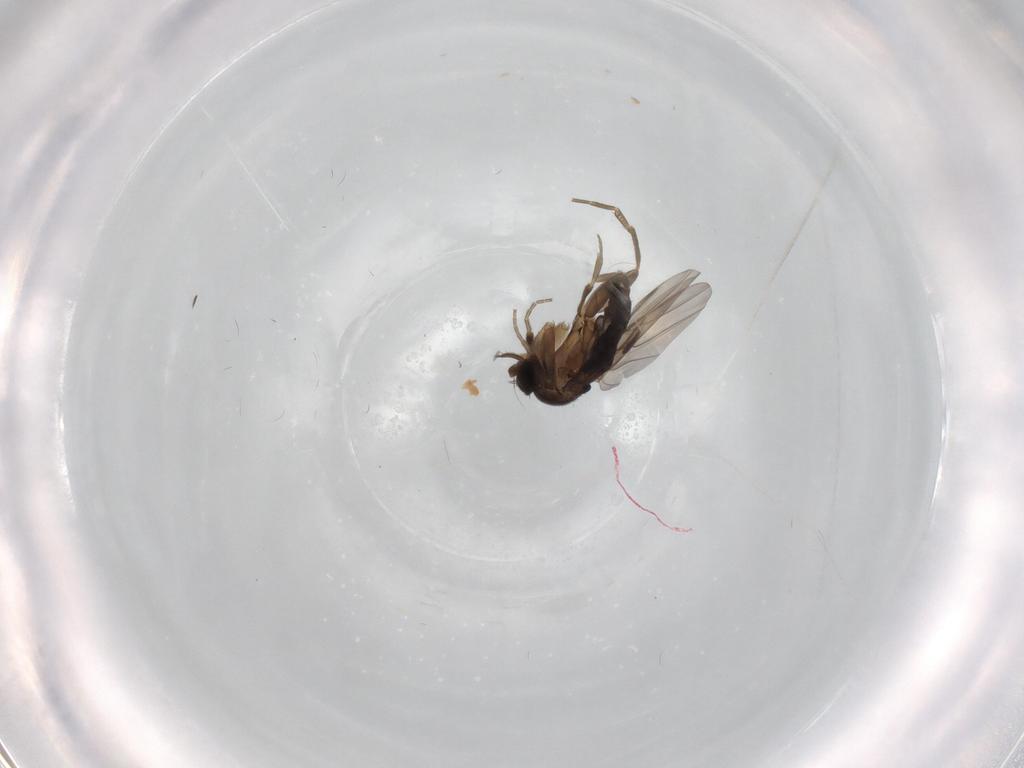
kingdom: Animalia
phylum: Arthropoda
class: Insecta
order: Diptera
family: Phoridae
